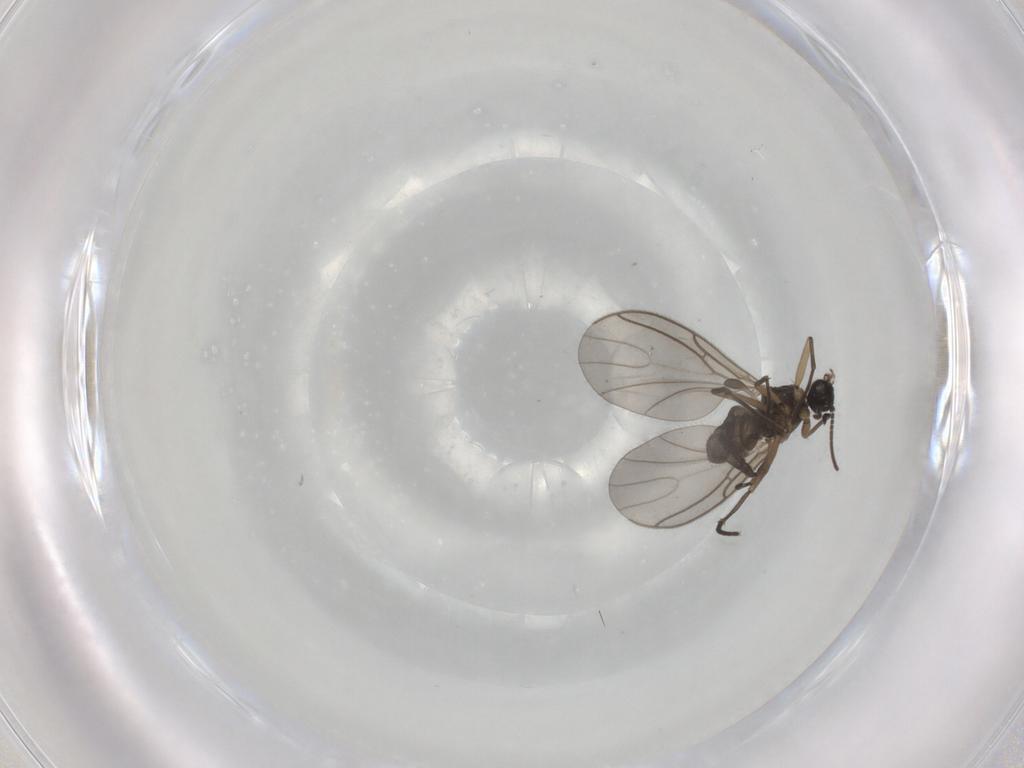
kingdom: Animalia
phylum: Arthropoda
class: Insecta
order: Diptera
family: Sciaridae
